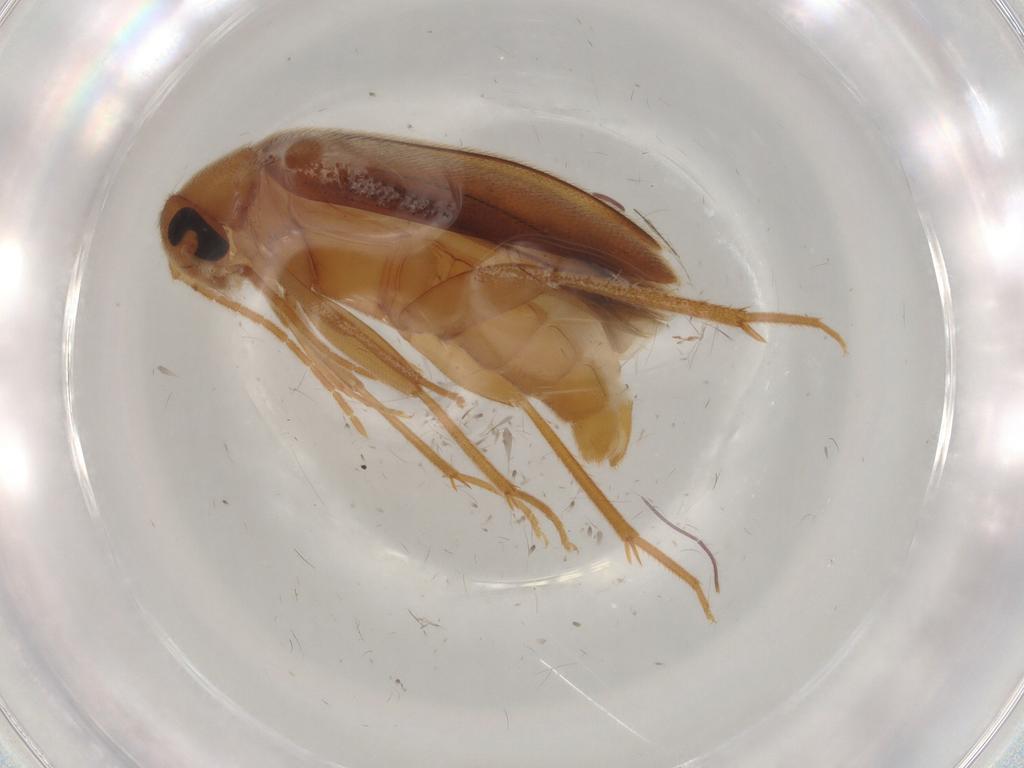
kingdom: Animalia
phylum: Arthropoda
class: Insecta
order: Coleoptera
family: Scraptiidae
